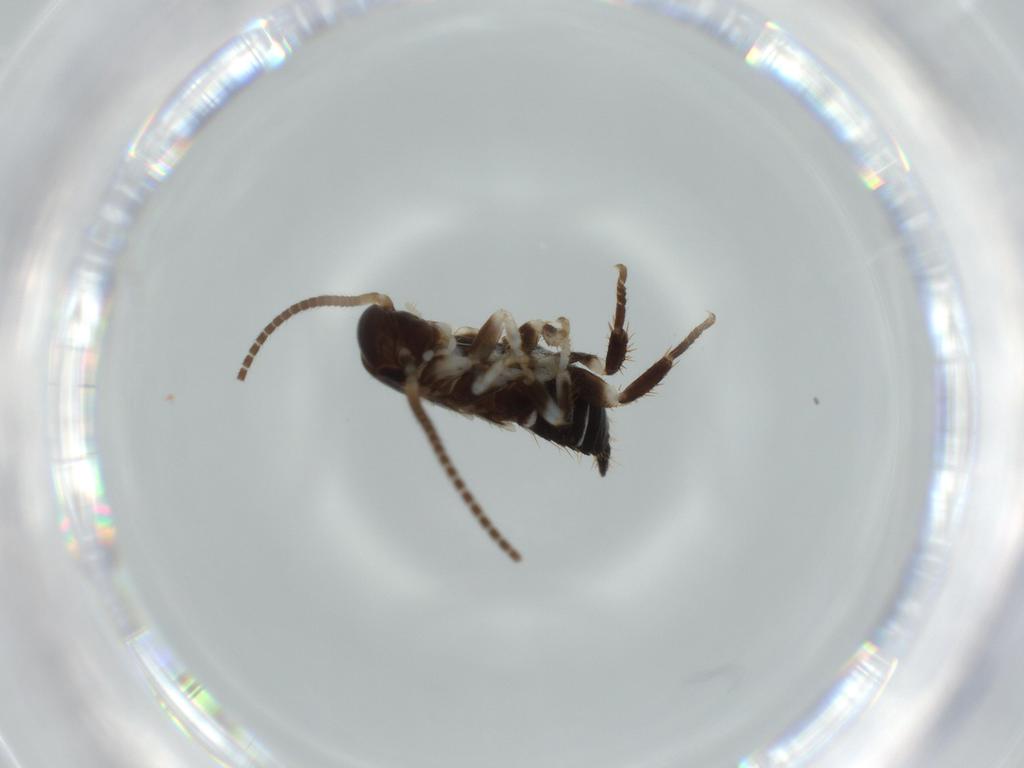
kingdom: Animalia
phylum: Arthropoda
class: Insecta
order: Blattodea
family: Ectobiidae
